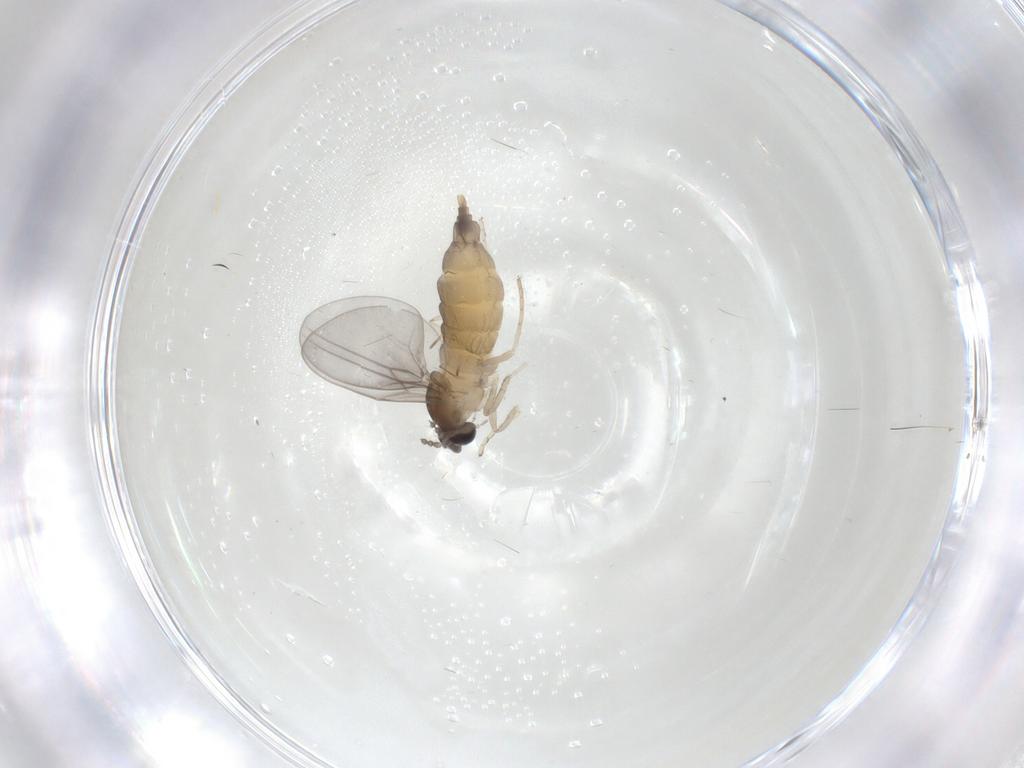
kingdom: Animalia
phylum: Arthropoda
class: Insecta
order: Diptera
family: Cecidomyiidae
